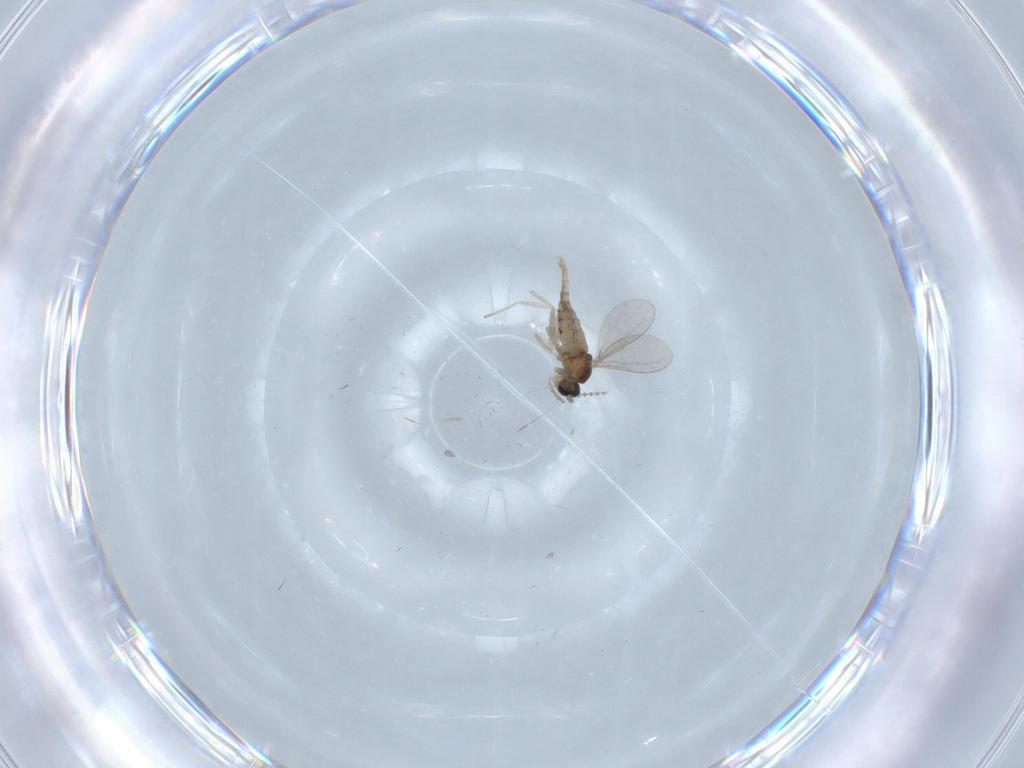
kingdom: Animalia
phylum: Arthropoda
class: Insecta
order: Diptera
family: Cecidomyiidae
